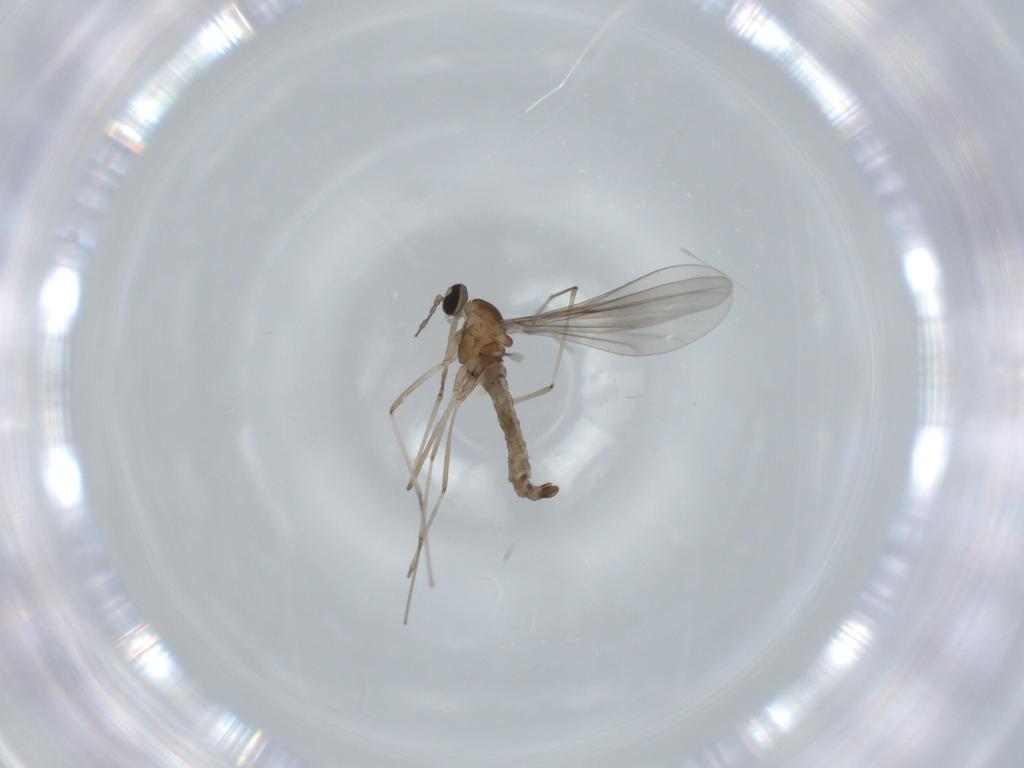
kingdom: Animalia
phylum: Arthropoda
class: Insecta
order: Diptera
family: Cecidomyiidae
